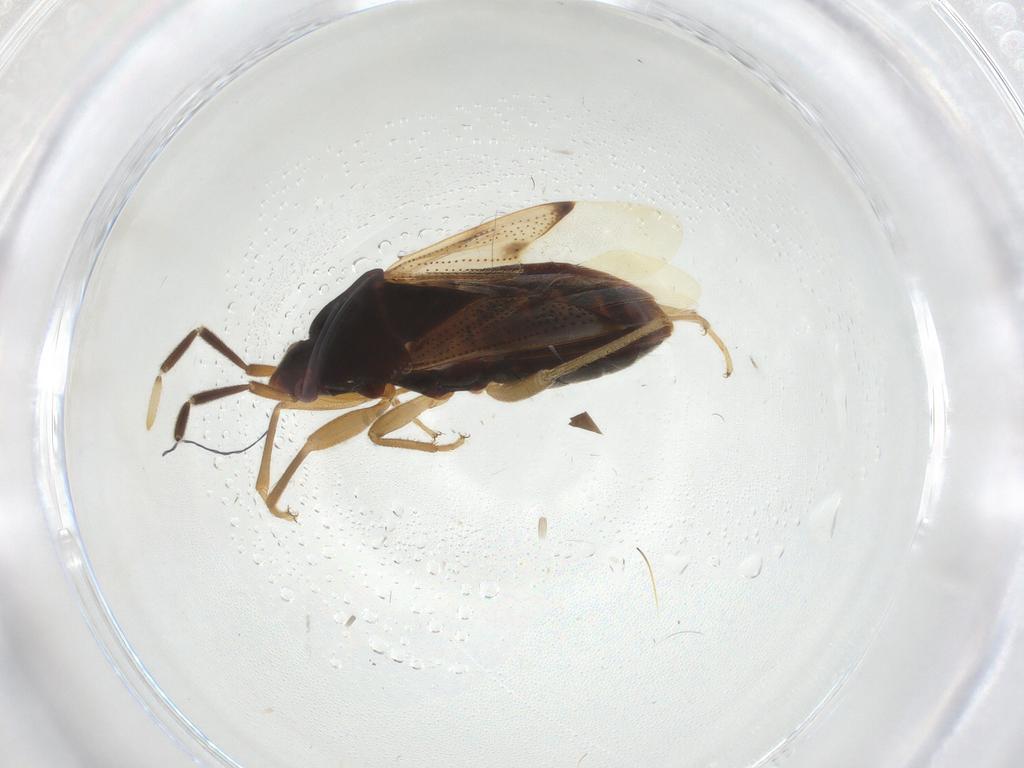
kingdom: Animalia
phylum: Arthropoda
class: Insecta
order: Hemiptera
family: Rhyparochromidae
